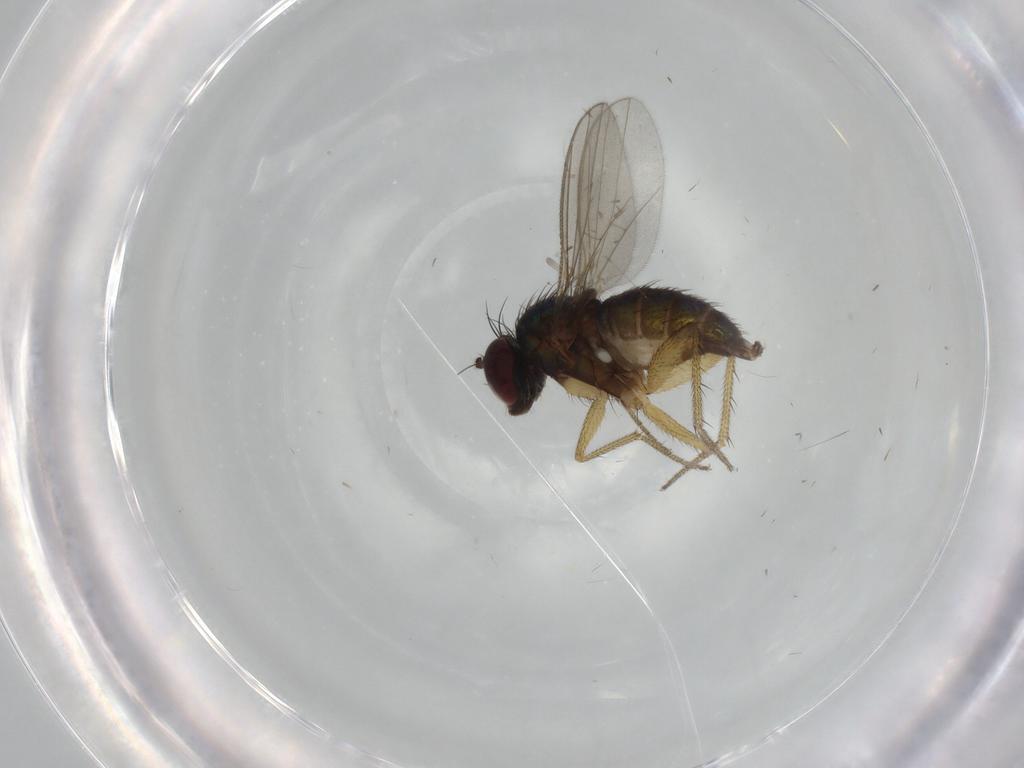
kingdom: Animalia
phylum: Arthropoda
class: Insecta
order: Diptera
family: Dolichopodidae
